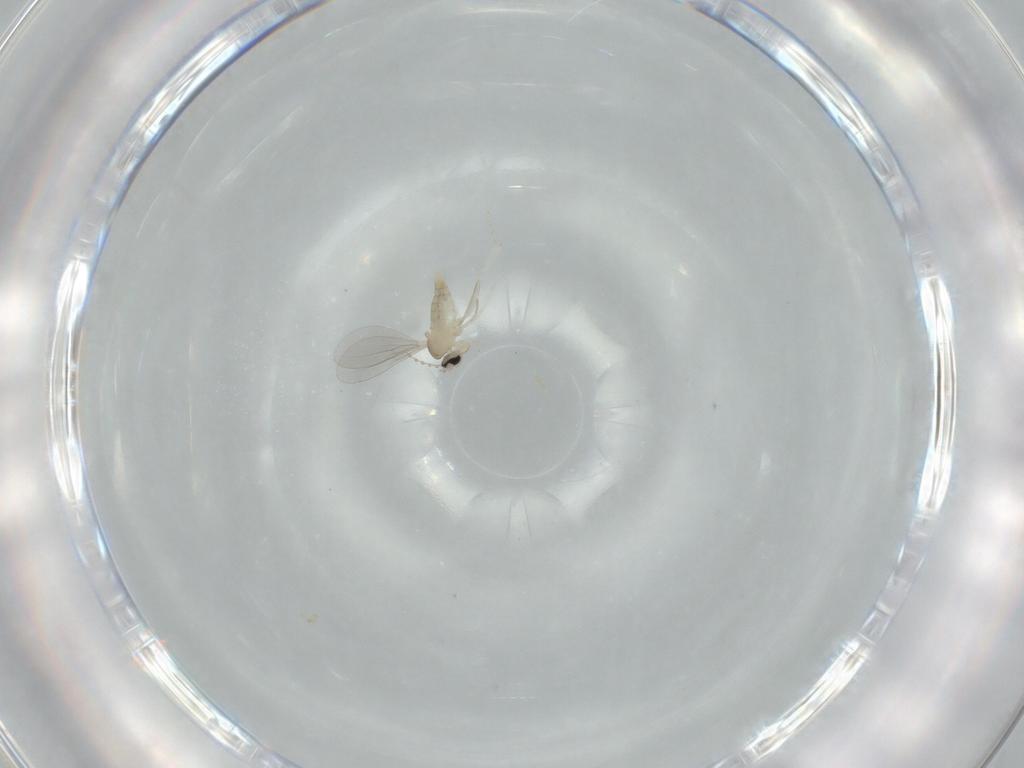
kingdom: Animalia
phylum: Arthropoda
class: Insecta
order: Diptera
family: Cecidomyiidae
